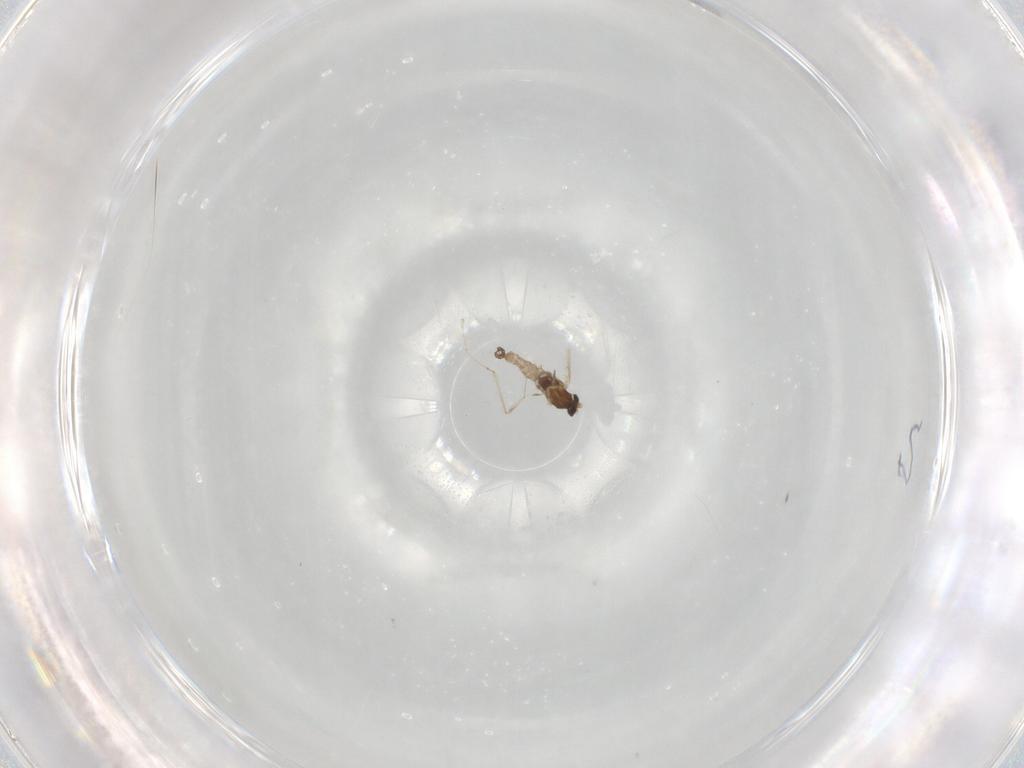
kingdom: Animalia
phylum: Arthropoda
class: Insecta
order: Diptera
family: Cecidomyiidae
